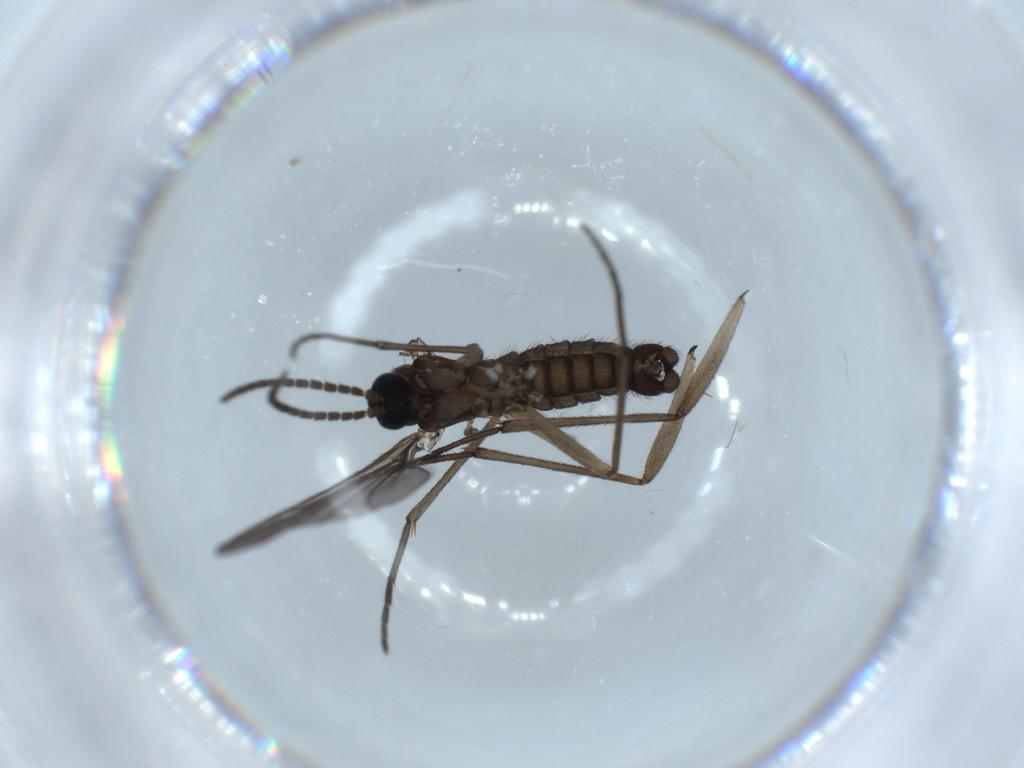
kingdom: Animalia
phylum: Arthropoda
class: Insecta
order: Diptera
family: Sciaridae
